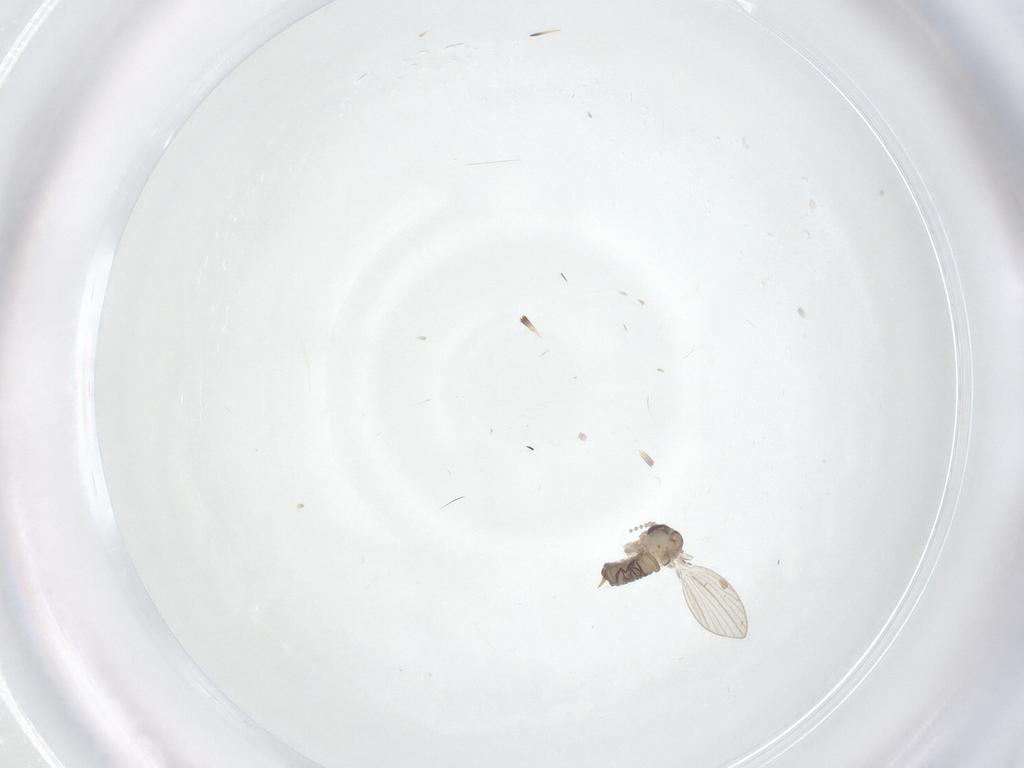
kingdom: Animalia
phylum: Arthropoda
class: Insecta
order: Diptera
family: Psychodidae
